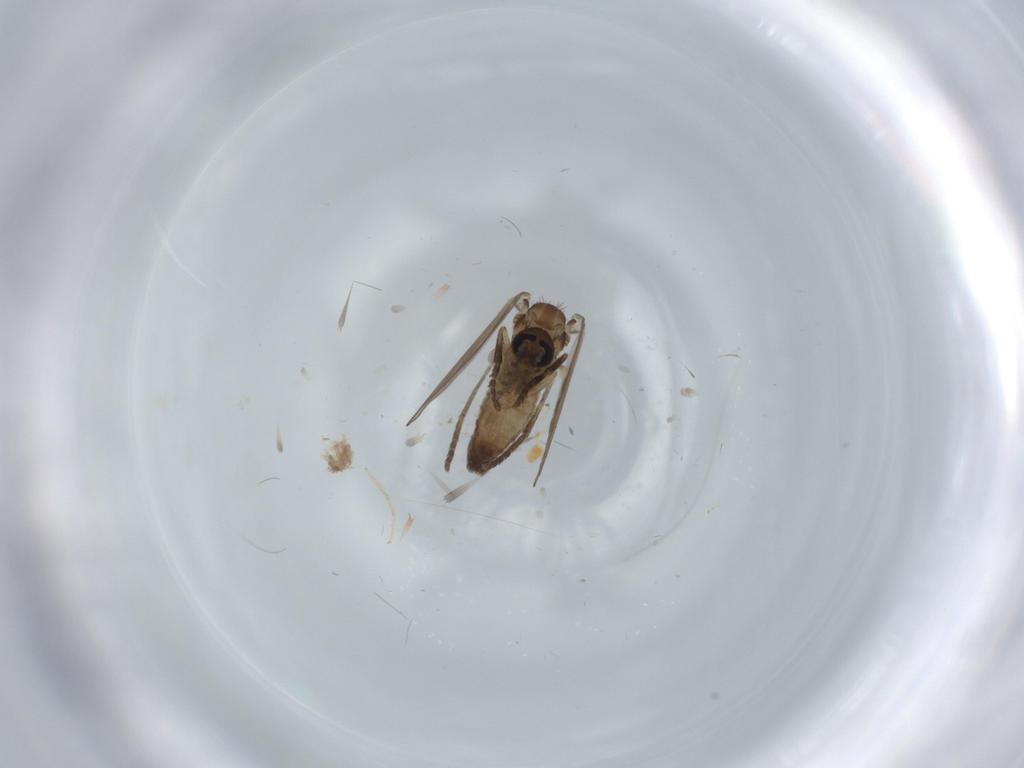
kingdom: Animalia
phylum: Arthropoda
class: Insecta
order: Diptera
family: Psychodidae
